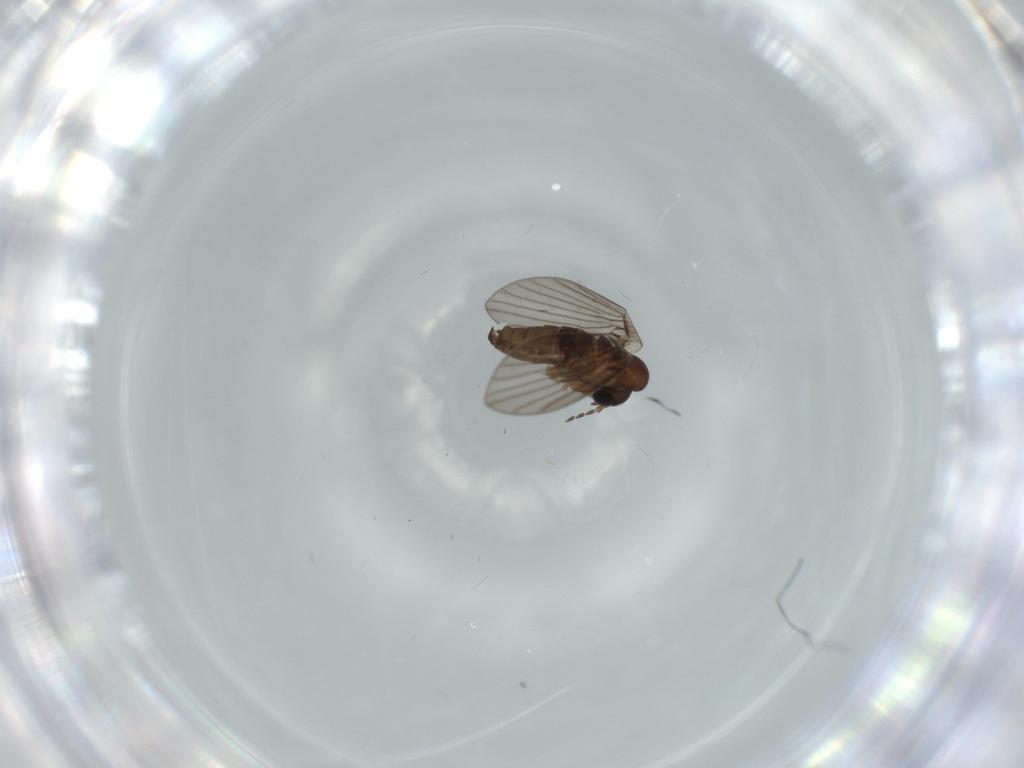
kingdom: Animalia
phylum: Arthropoda
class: Insecta
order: Diptera
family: Psychodidae
